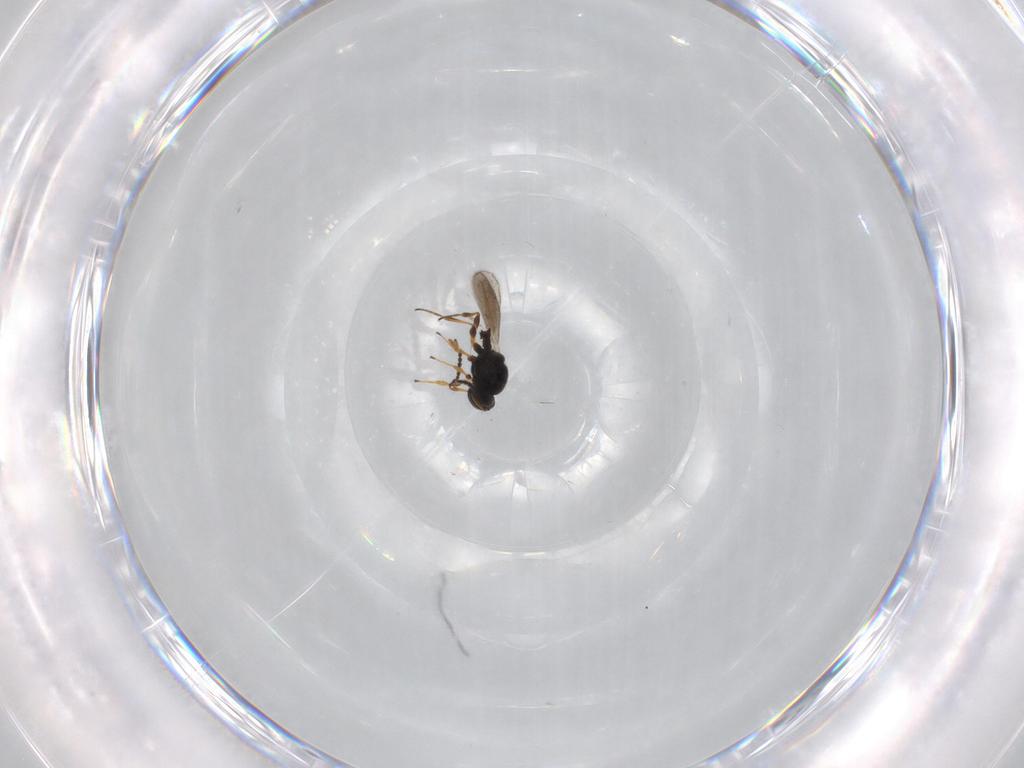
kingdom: Animalia
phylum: Arthropoda
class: Insecta
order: Hymenoptera
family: Platygastridae
